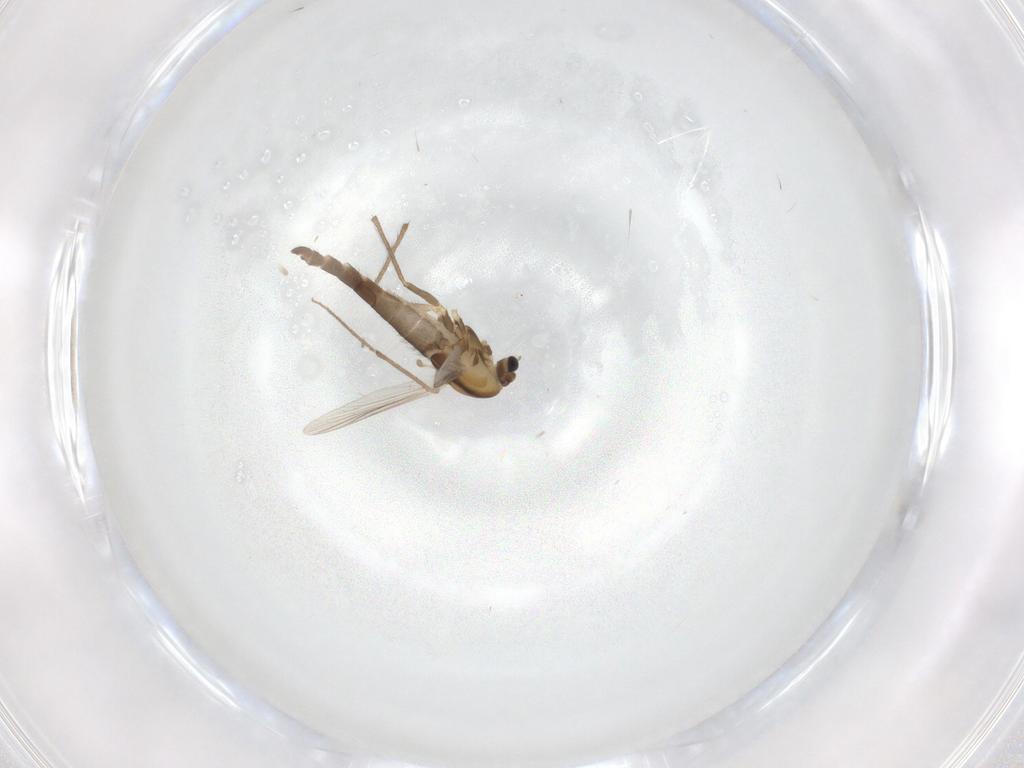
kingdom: Animalia
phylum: Arthropoda
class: Insecta
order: Diptera
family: Chironomidae
